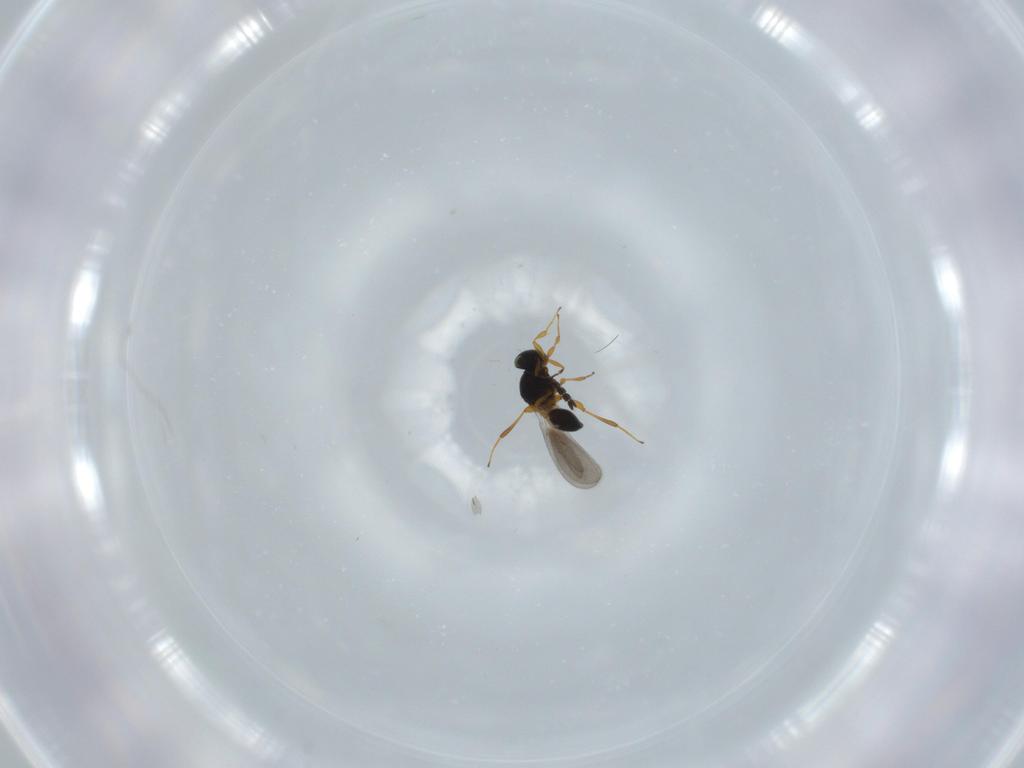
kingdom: Animalia
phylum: Arthropoda
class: Insecta
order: Hymenoptera
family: Platygastridae
